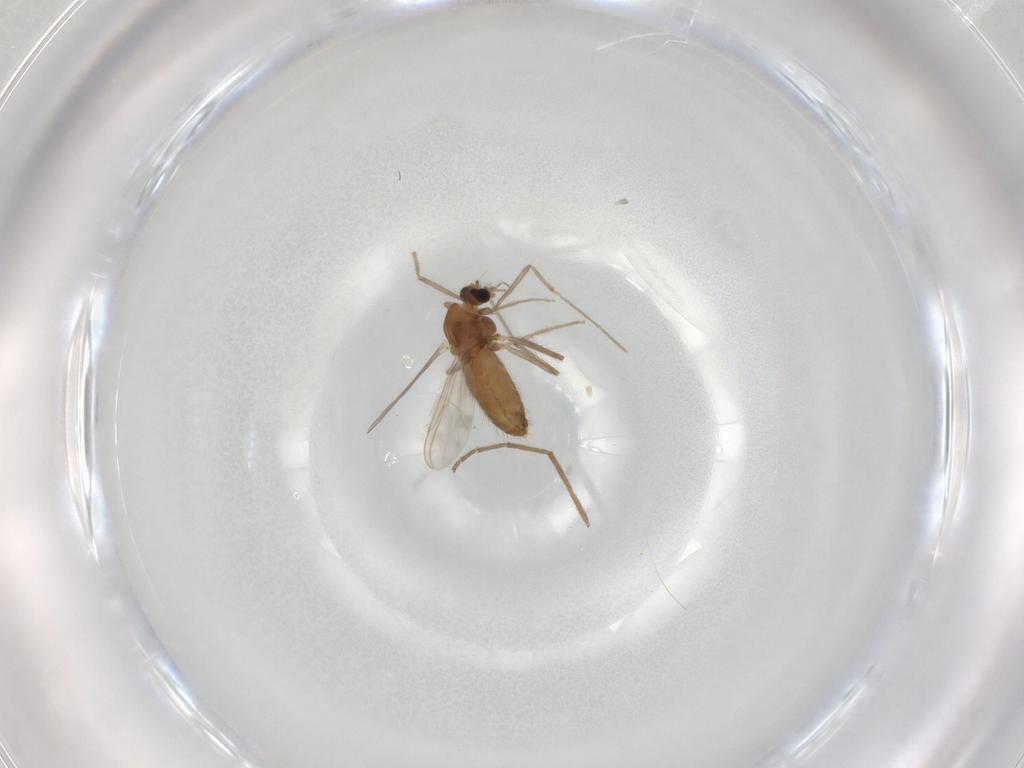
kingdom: Animalia
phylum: Arthropoda
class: Insecta
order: Diptera
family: Chironomidae
